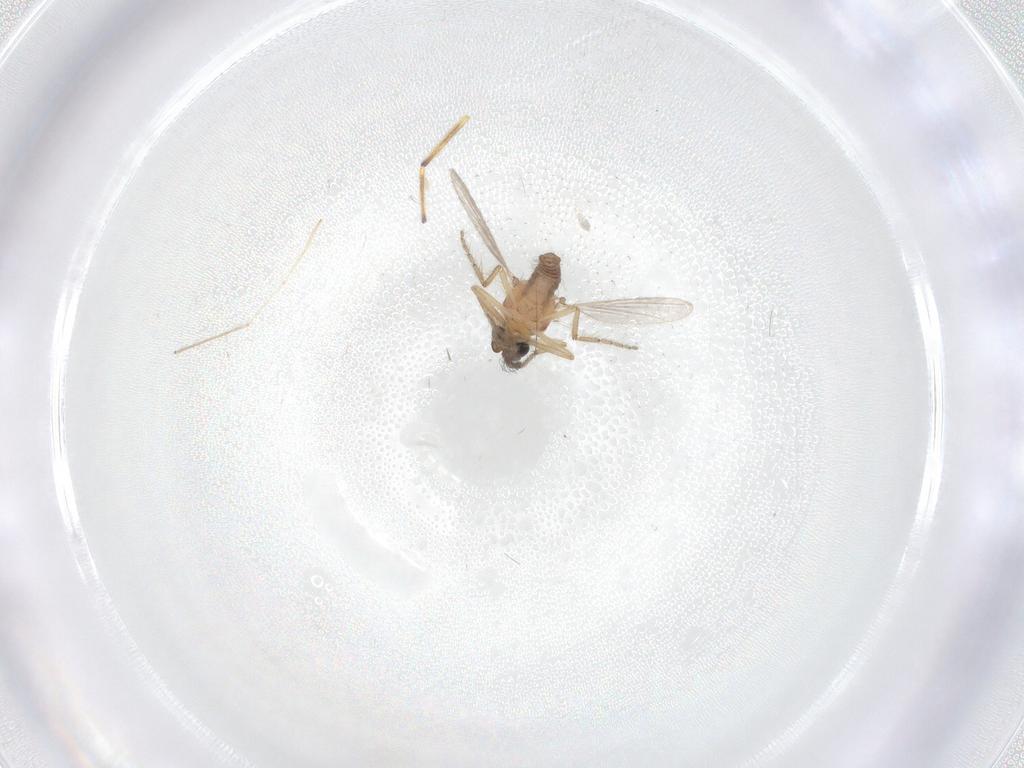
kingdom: Animalia
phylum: Arthropoda
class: Insecta
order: Diptera
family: Ceratopogonidae
